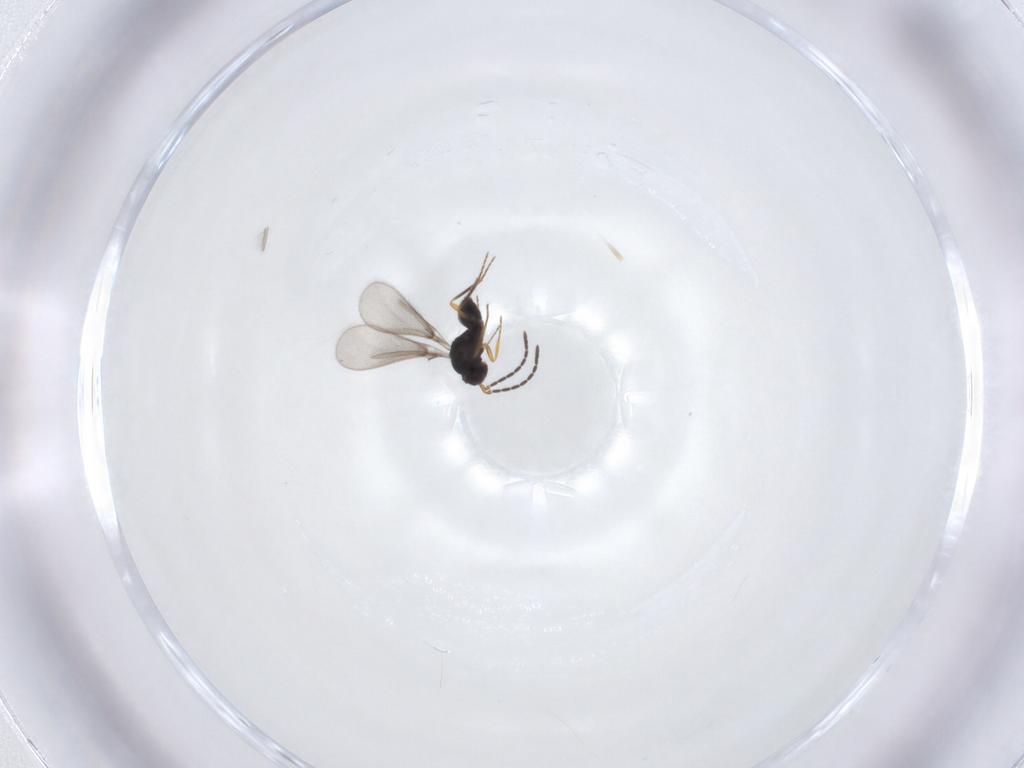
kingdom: Animalia
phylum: Arthropoda
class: Insecta
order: Hymenoptera
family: Mymaridae
